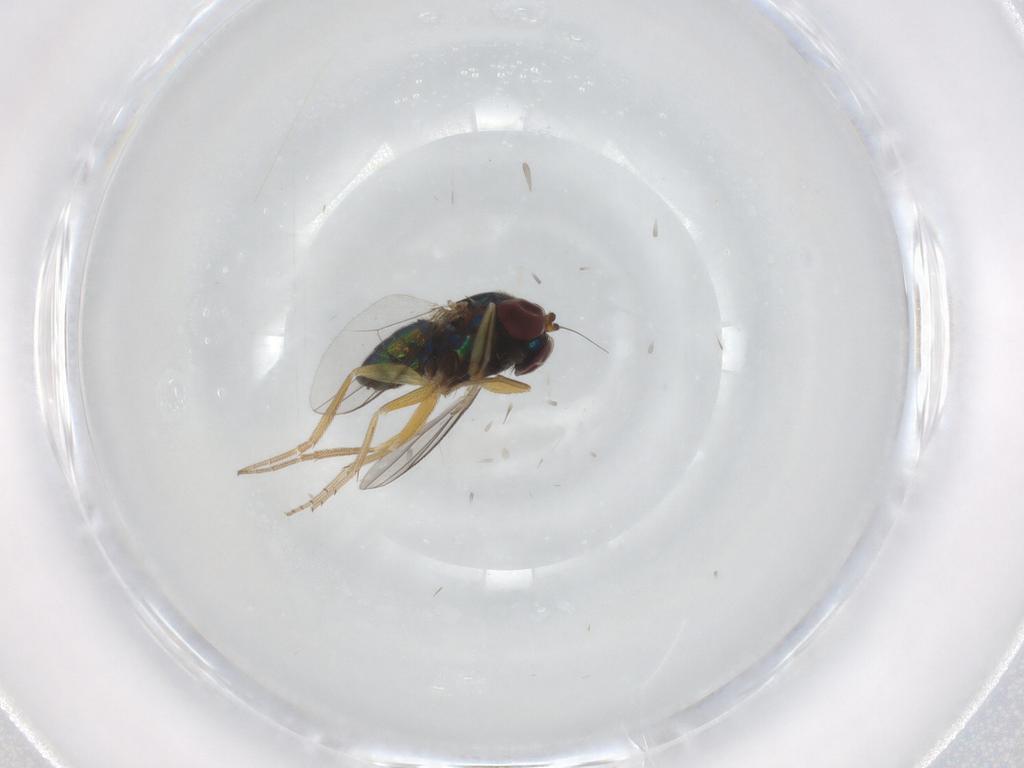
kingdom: Animalia
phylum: Arthropoda
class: Insecta
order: Diptera
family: Dolichopodidae
